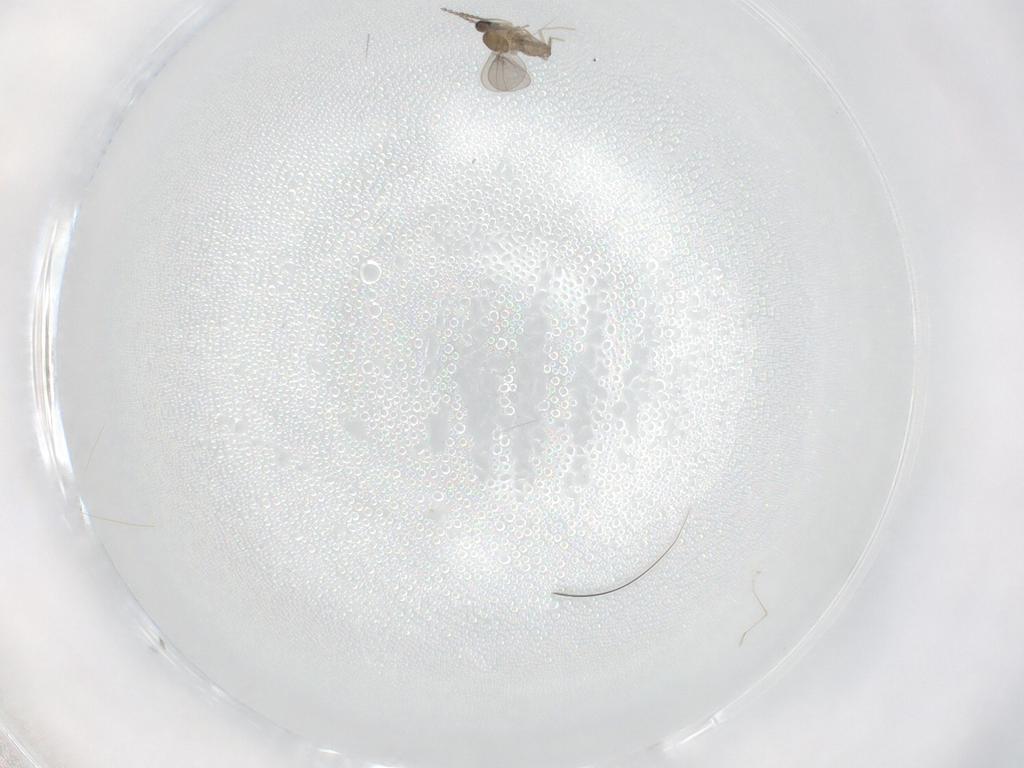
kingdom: Animalia
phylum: Arthropoda
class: Insecta
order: Diptera
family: Cecidomyiidae
